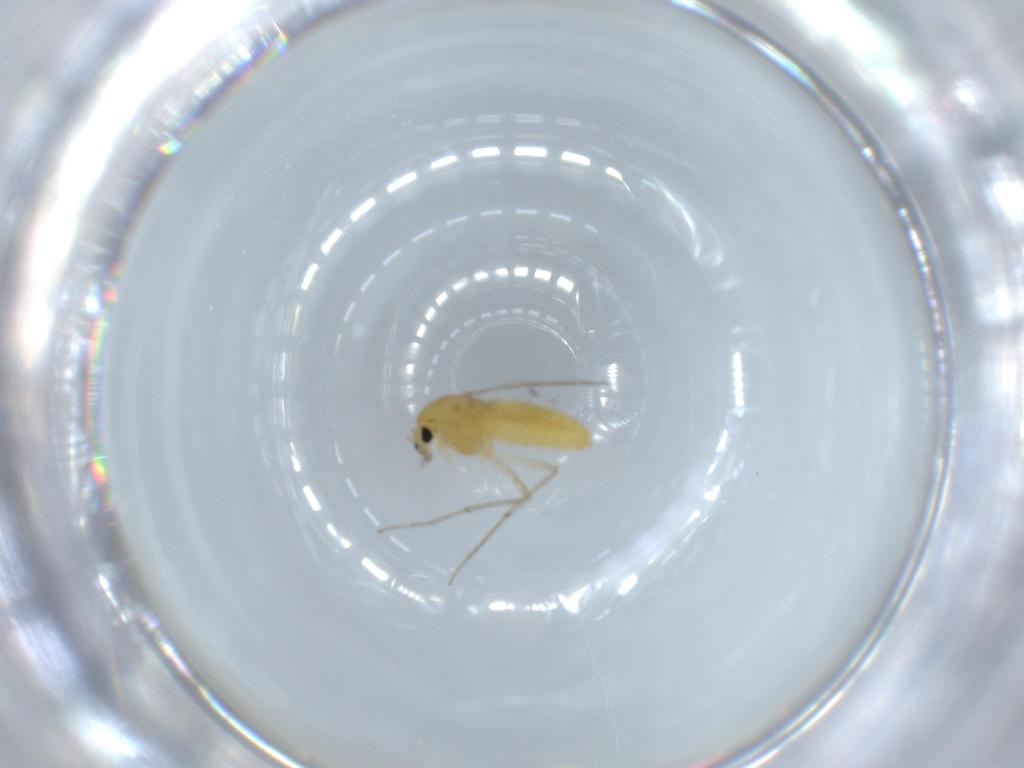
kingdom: Animalia
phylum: Arthropoda
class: Insecta
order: Diptera
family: Chironomidae
